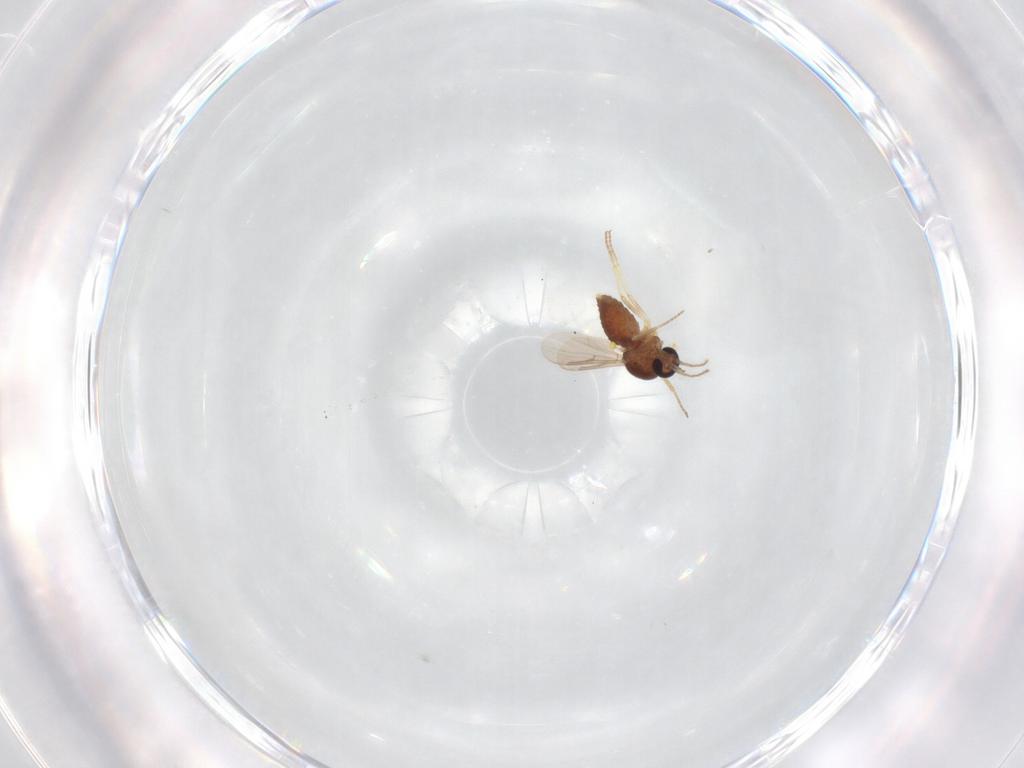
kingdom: Animalia
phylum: Arthropoda
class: Insecta
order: Diptera
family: Ceratopogonidae
